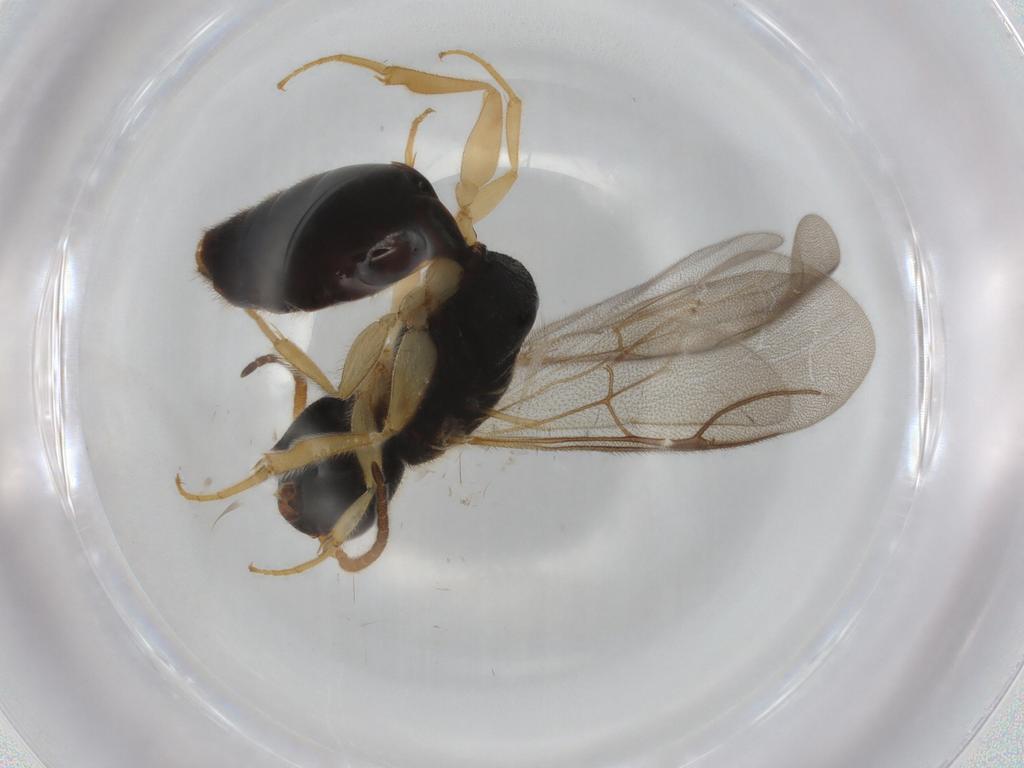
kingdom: Animalia
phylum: Arthropoda
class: Insecta
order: Hymenoptera
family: Bethylidae
